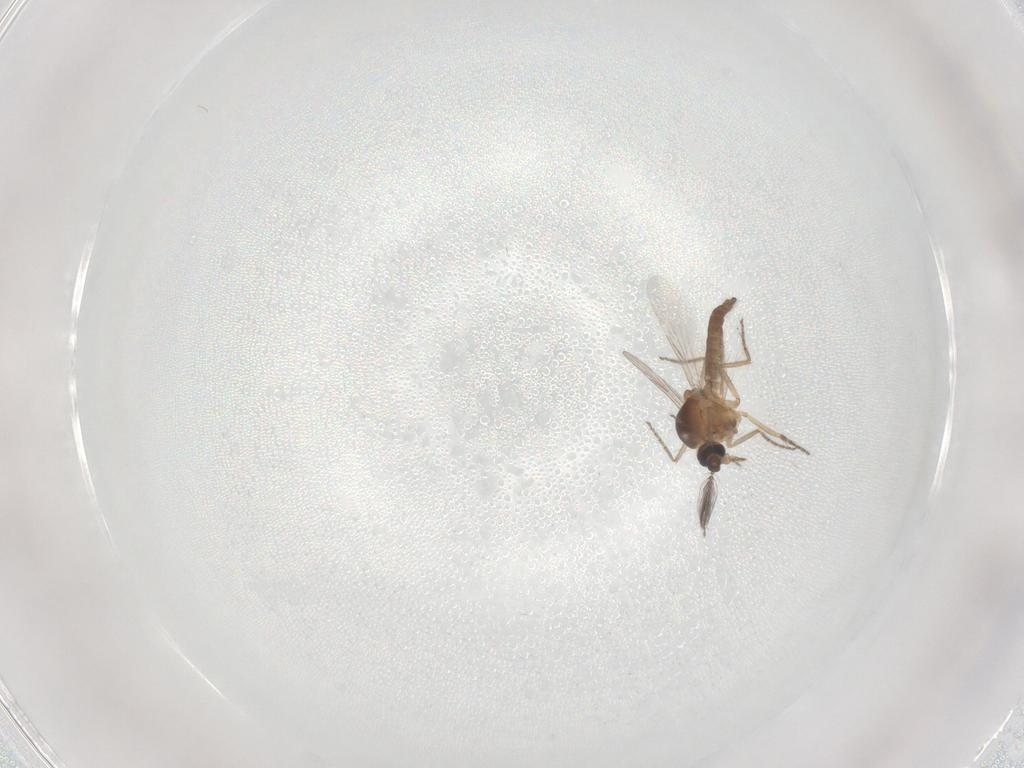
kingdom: Animalia
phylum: Arthropoda
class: Insecta
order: Diptera
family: Ceratopogonidae
